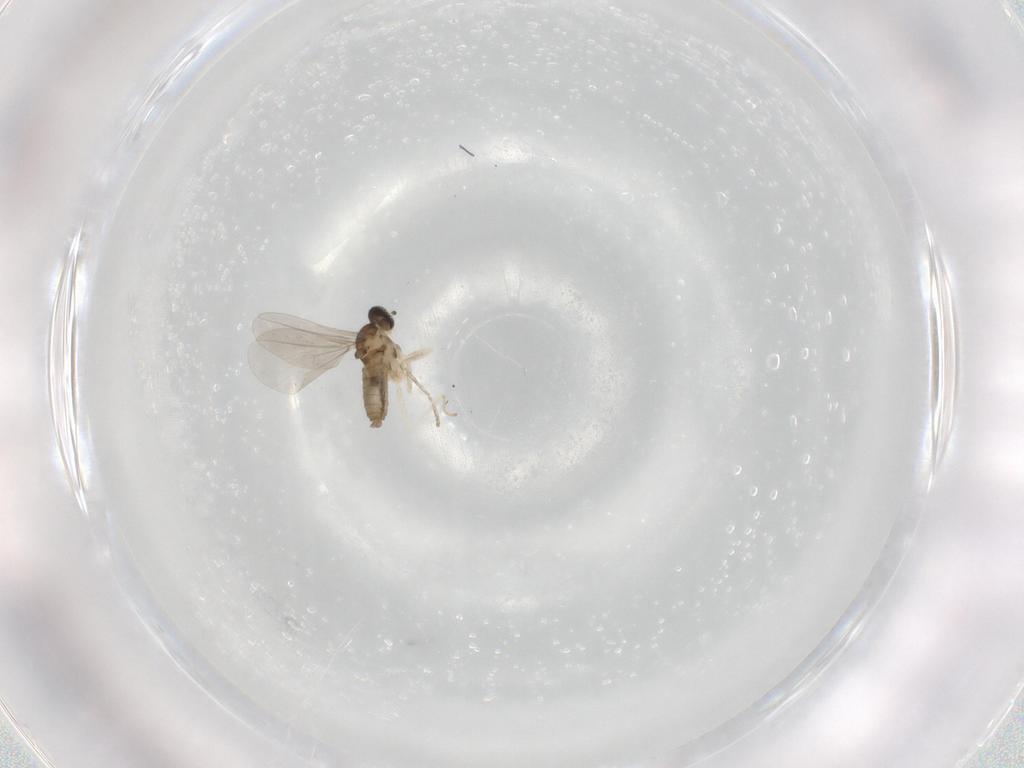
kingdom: Animalia
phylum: Arthropoda
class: Insecta
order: Diptera
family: Cecidomyiidae
